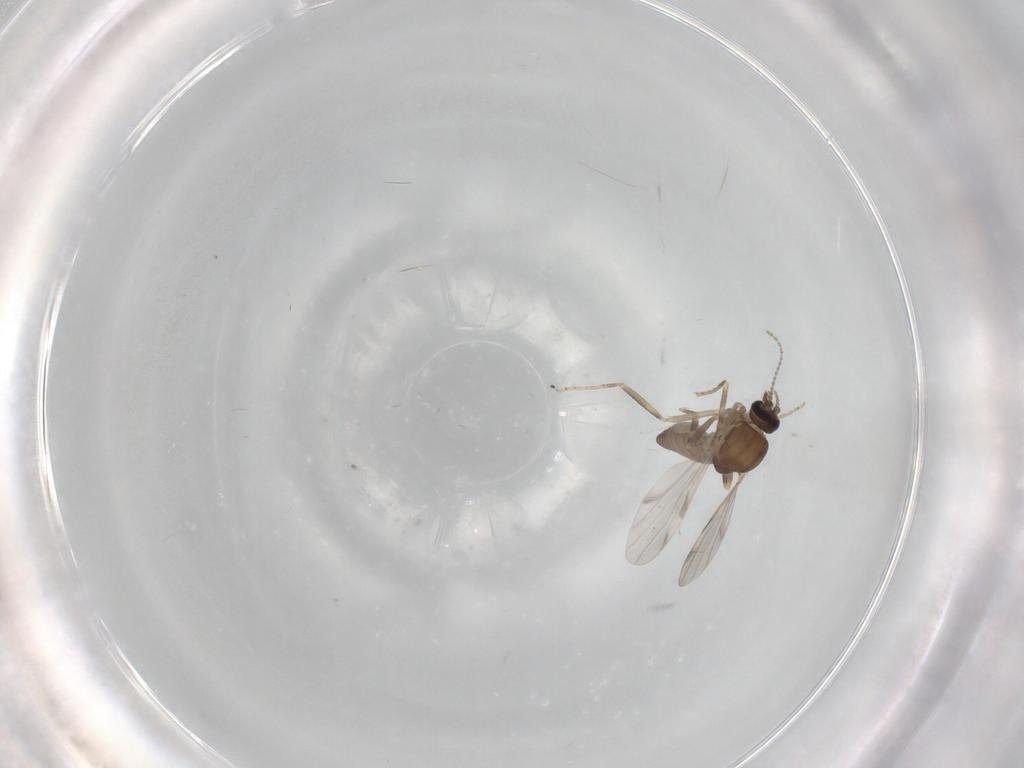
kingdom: Animalia
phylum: Arthropoda
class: Insecta
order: Diptera
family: Ceratopogonidae
